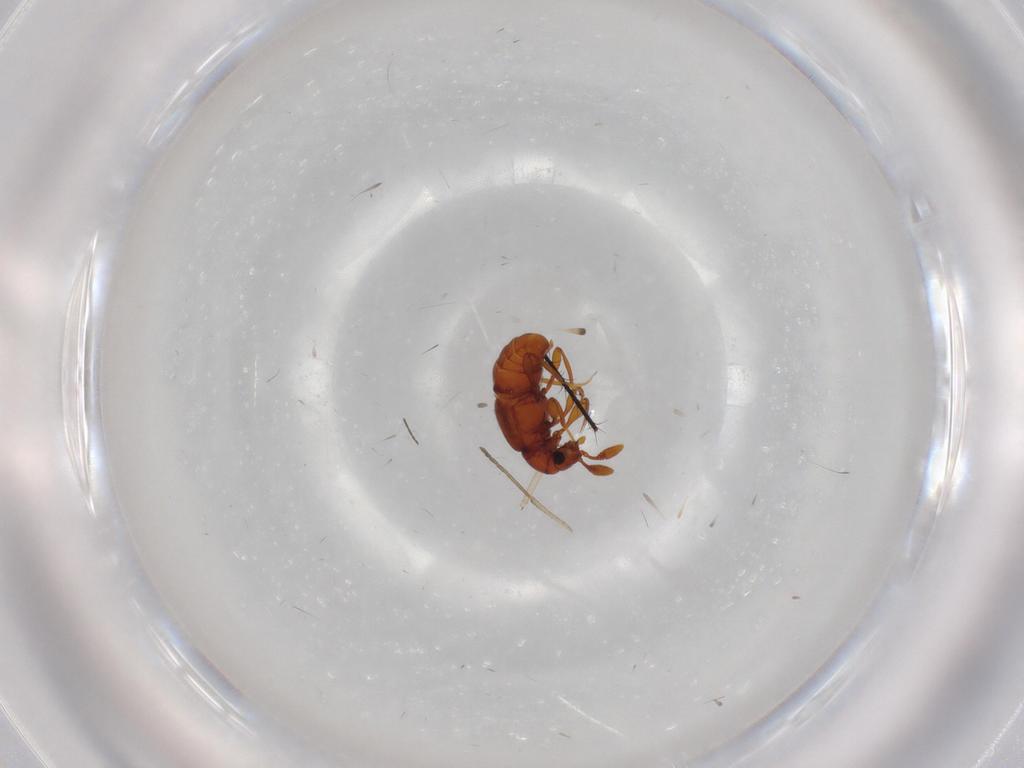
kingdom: Animalia
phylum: Arthropoda
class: Insecta
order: Coleoptera
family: Staphylinidae
